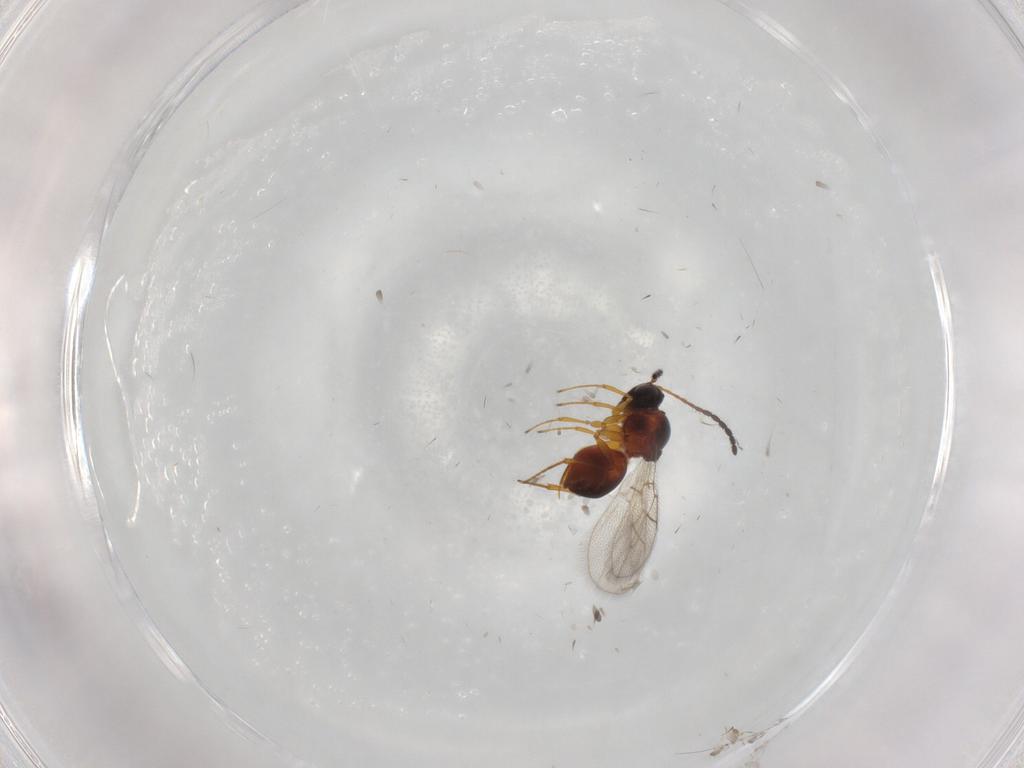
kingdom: Animalia
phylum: Arthropoda
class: Insecta
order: Hymenoptera
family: Figitidae
